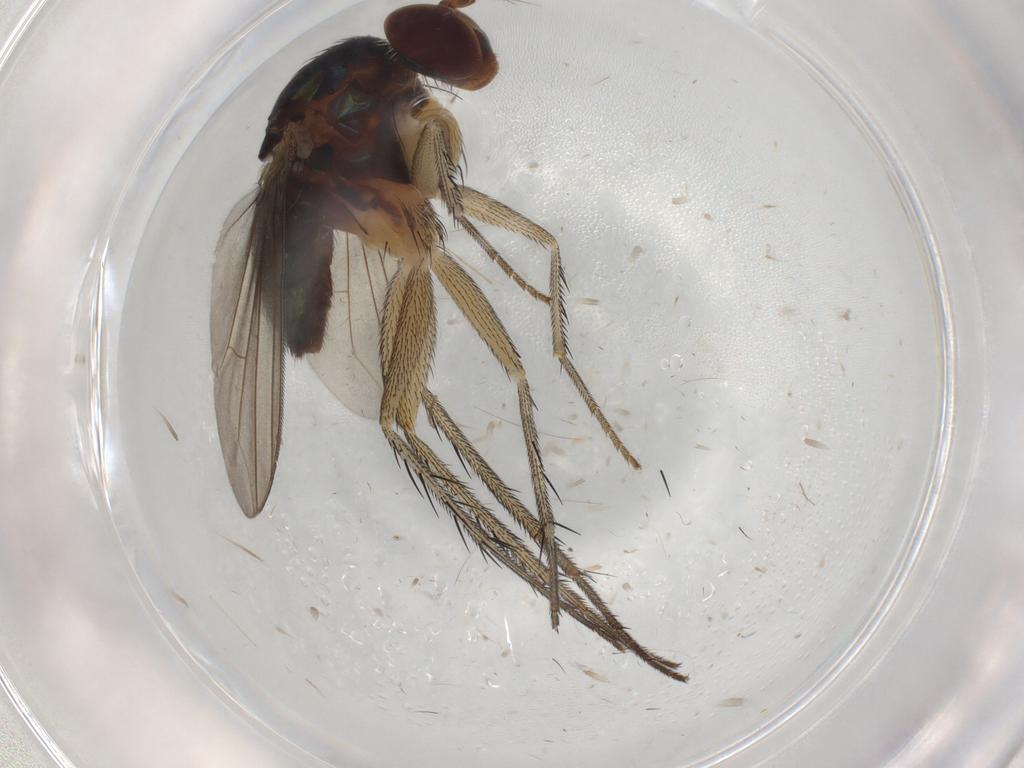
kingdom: Animalia
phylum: Arthropoda
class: Insecta
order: Diptera
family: Dolichopodidae
